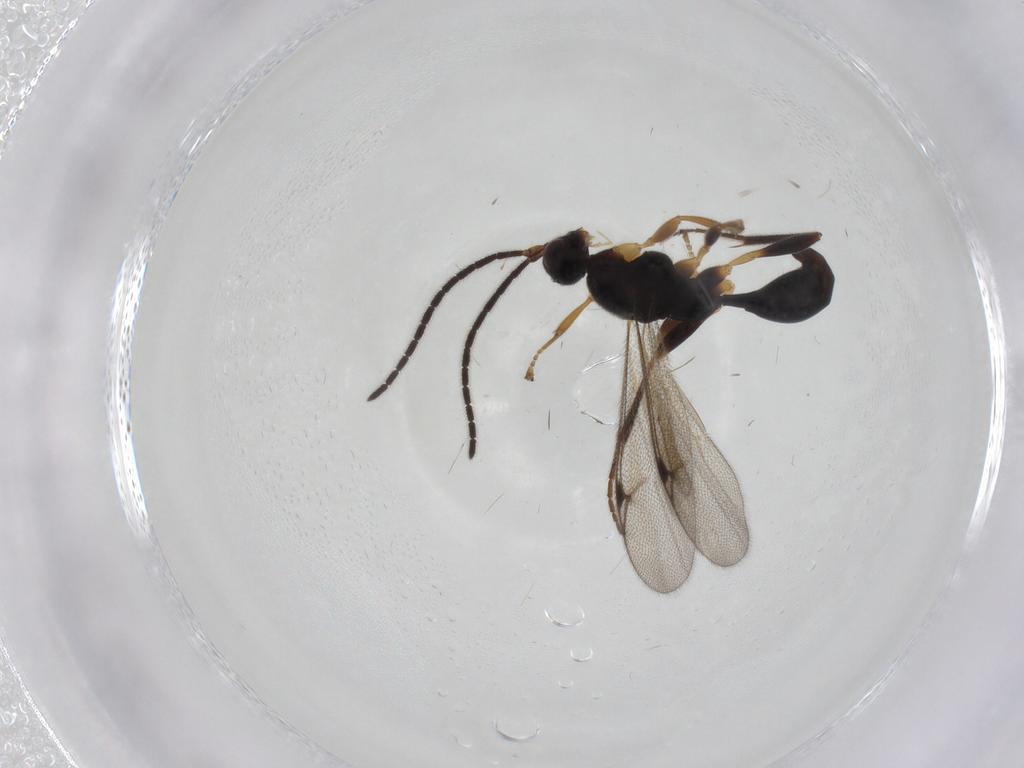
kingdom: Animalia
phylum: Arthropoda
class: Insecta
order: Hymenoptera
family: Proctotrupidae
